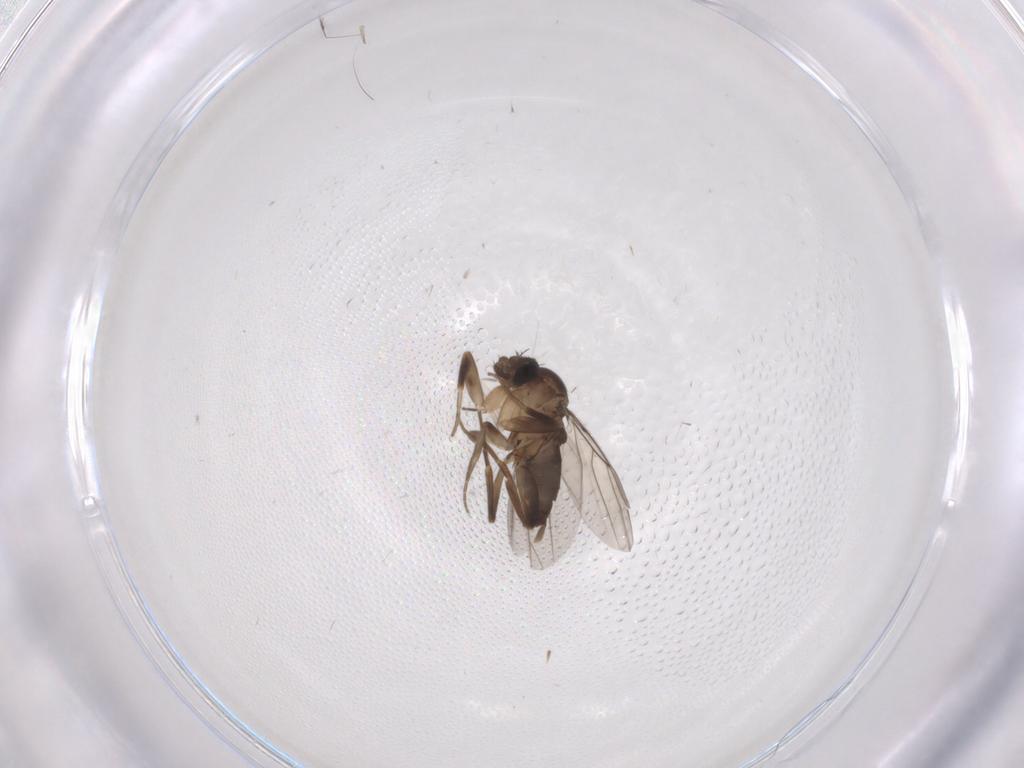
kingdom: Animalia
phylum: Arthropoda
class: Insecta
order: Diptera
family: Phoridae
